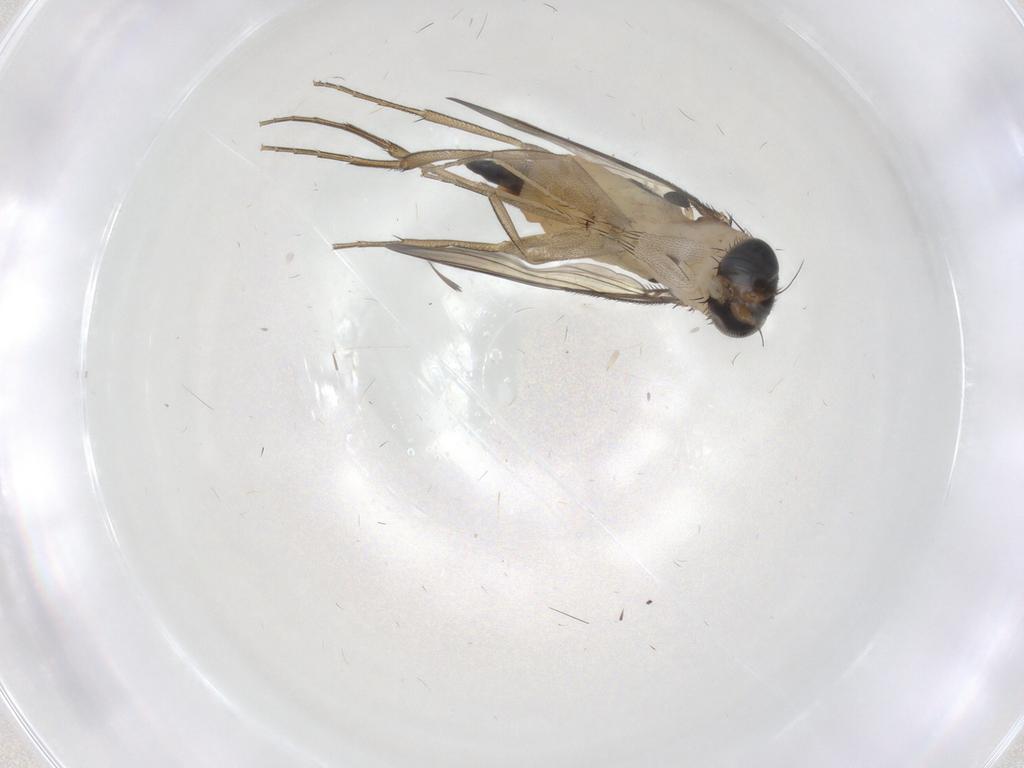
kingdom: Animalia
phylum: Arthropoda
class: Insecta
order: Diptera
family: Phoridae
